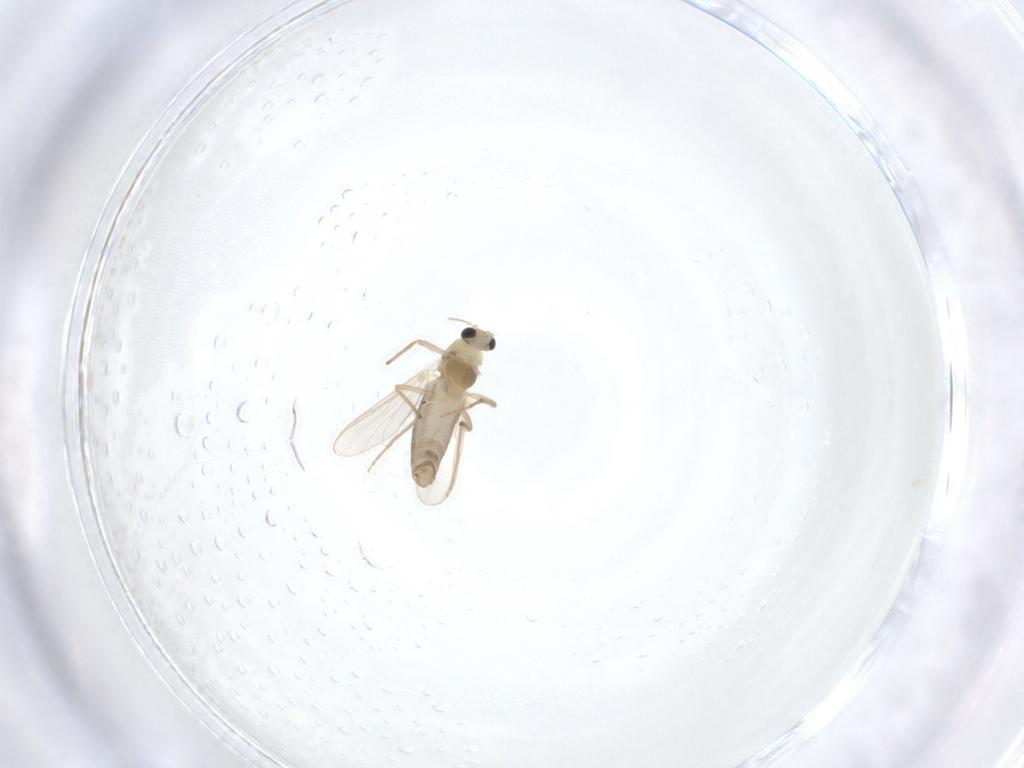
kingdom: Animalia
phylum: Arthropoda
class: Insecta
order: Diptera
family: Chironomidae
